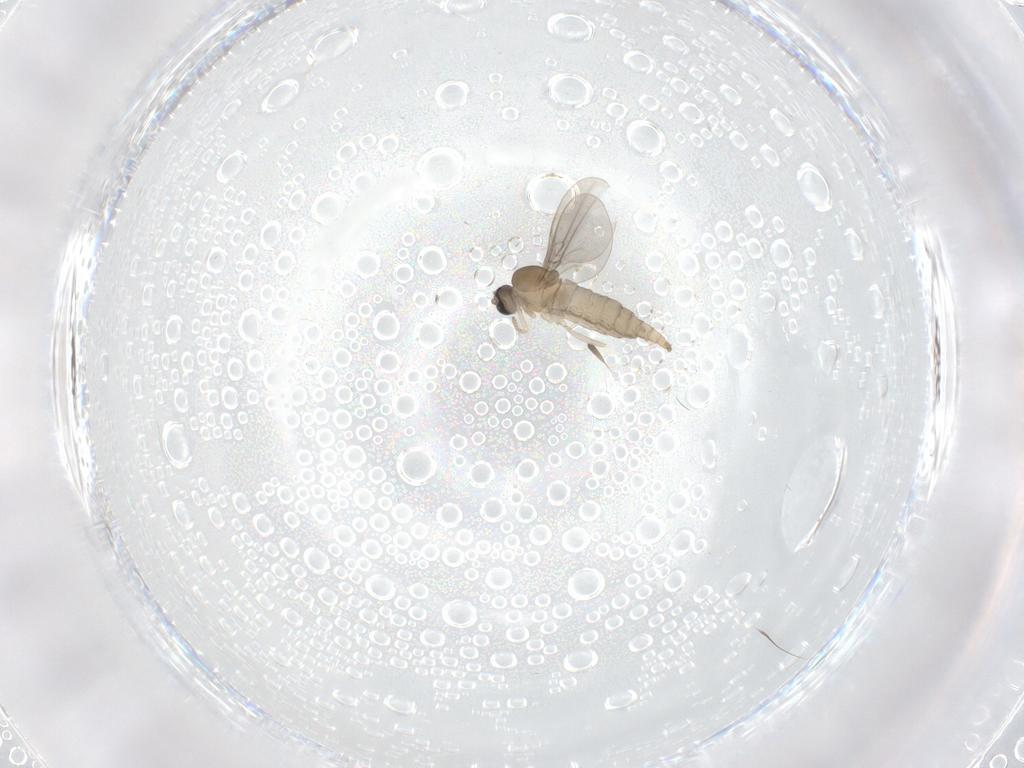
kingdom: Animalia
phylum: Arthropoda
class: Insecta
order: Diptera
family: Cecidomyiidae
